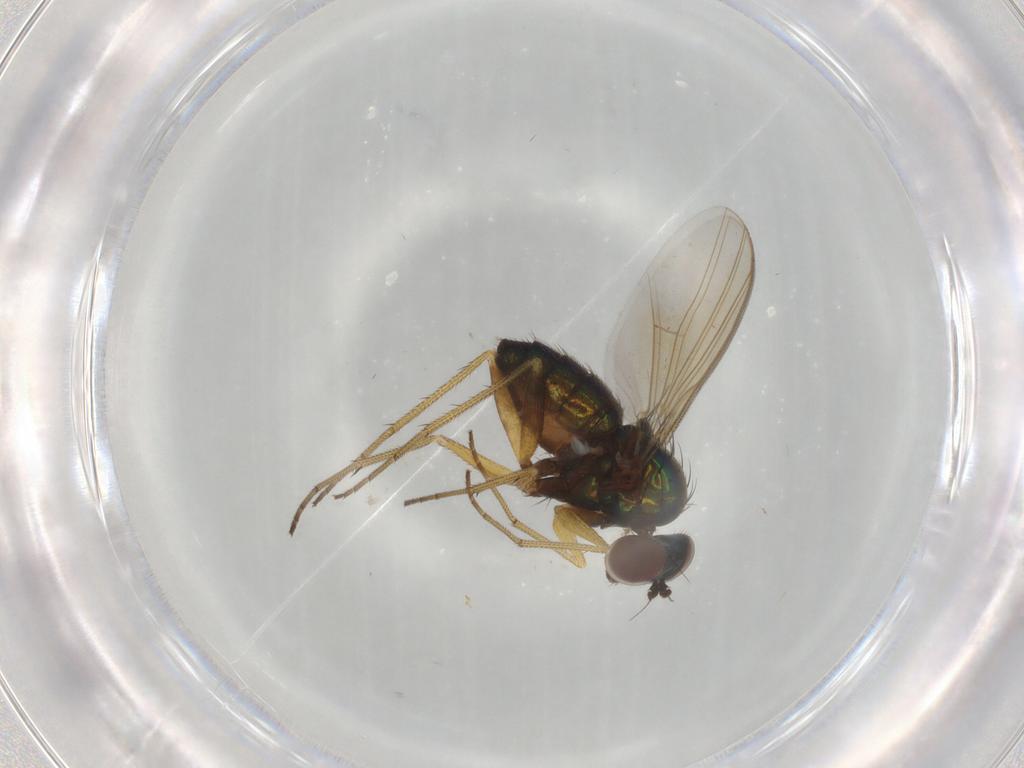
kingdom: Animalia
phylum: Arthropoda
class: Insecta
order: Diptera
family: Dolichopodidae
